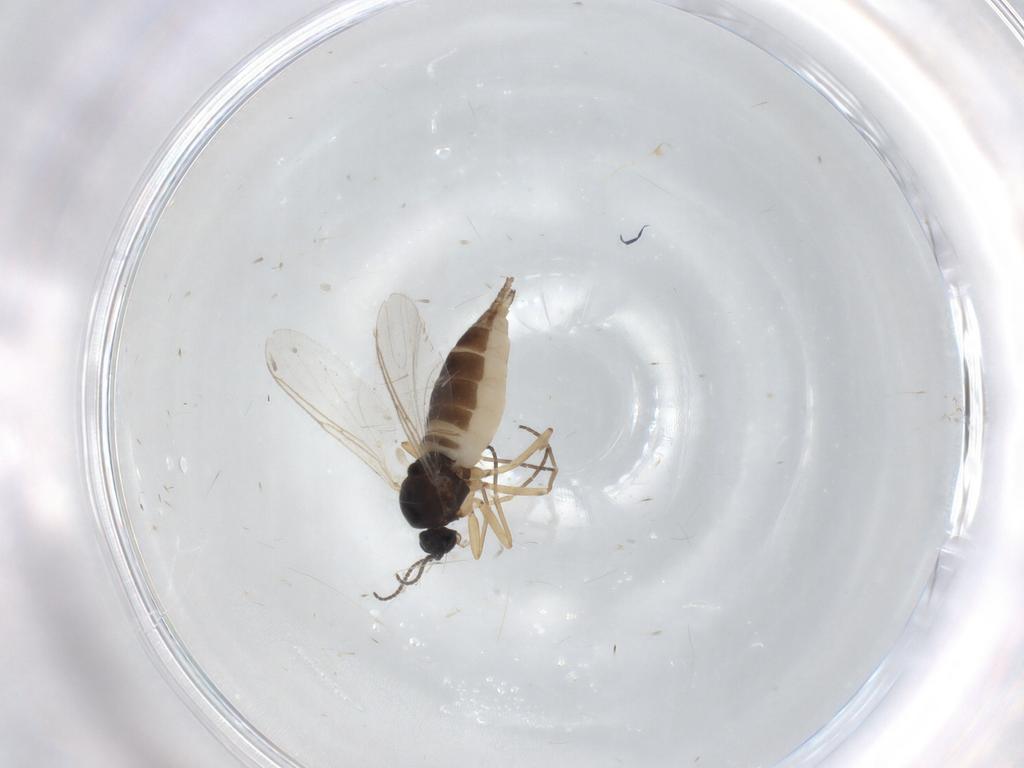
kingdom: Animalia
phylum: Arthropoda
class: Insecta
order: Diptera
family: Sciaridae
